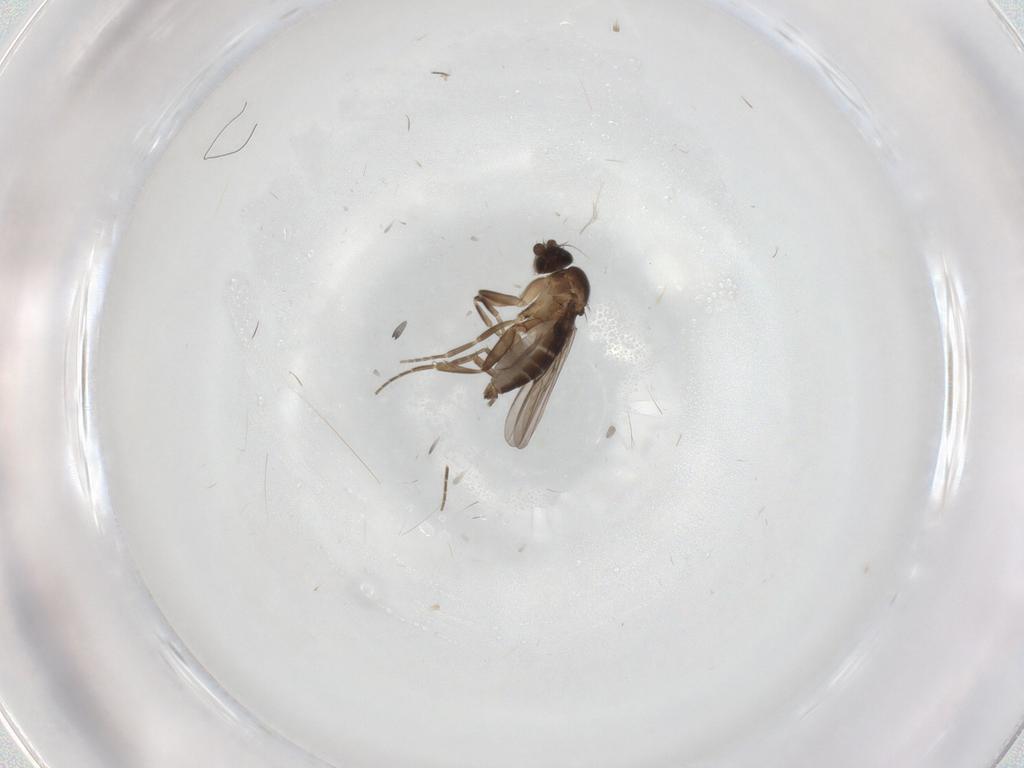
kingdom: Animalia
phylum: Arthropoda
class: Insecta
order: Diptera
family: Phoridae
